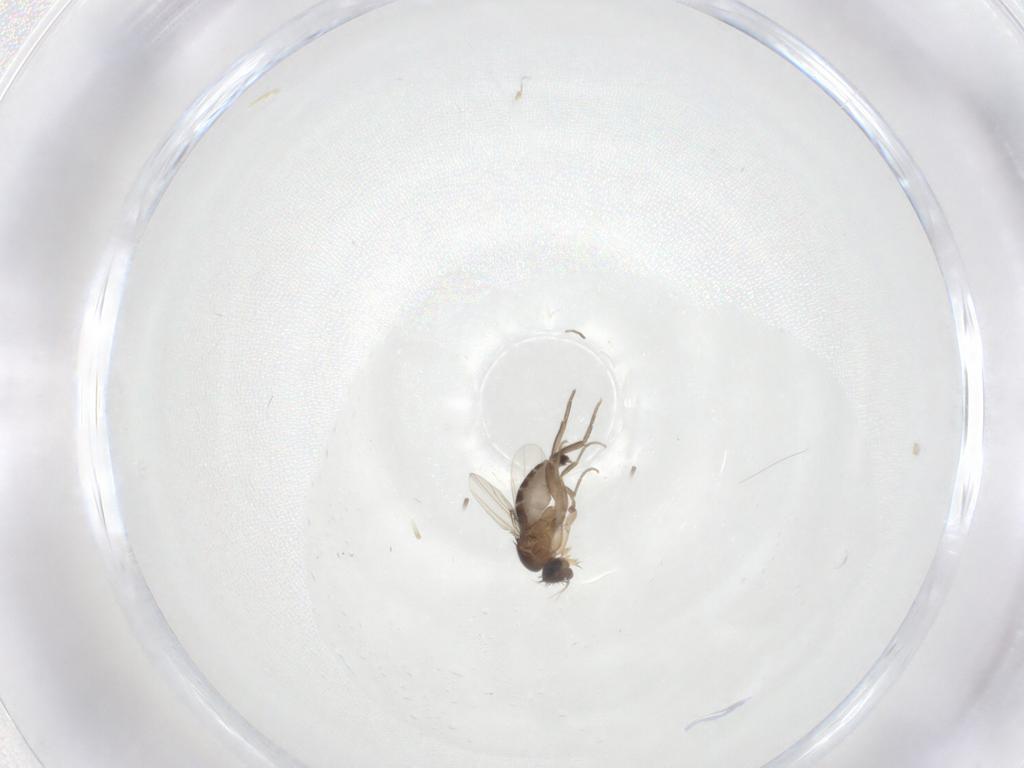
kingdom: Animalia
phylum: Arthropoda
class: Insecta
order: Diptera
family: Phoridae
